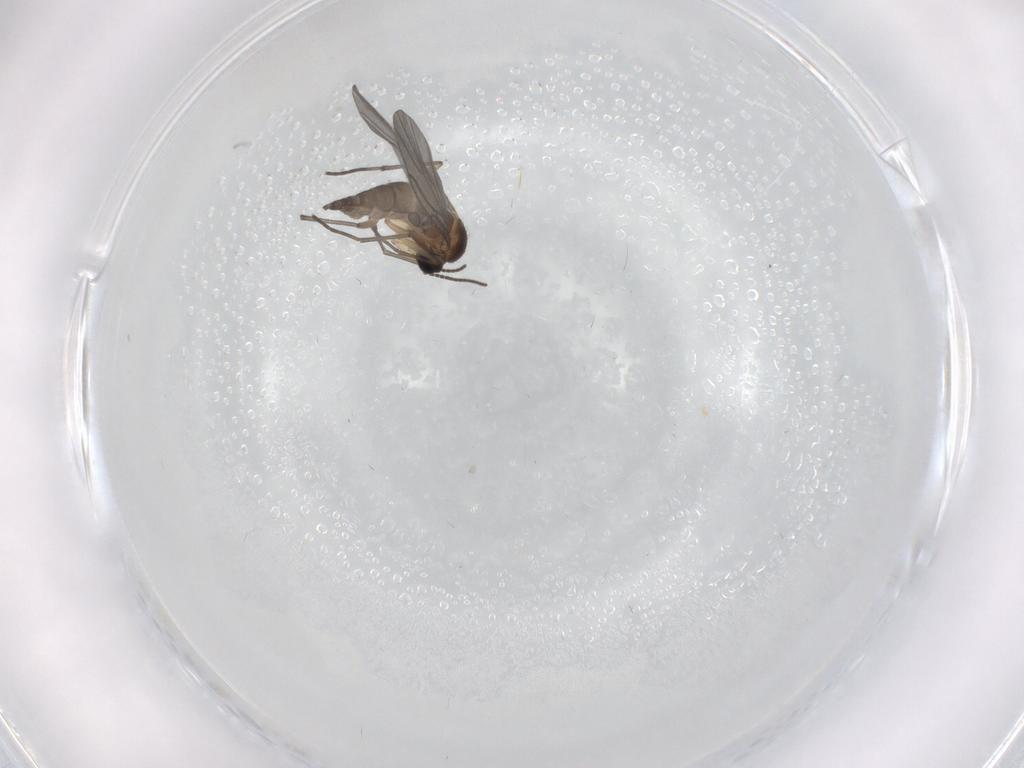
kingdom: Animalia
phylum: Arthropoda
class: Insecta
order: Diptera
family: Sciaridae
